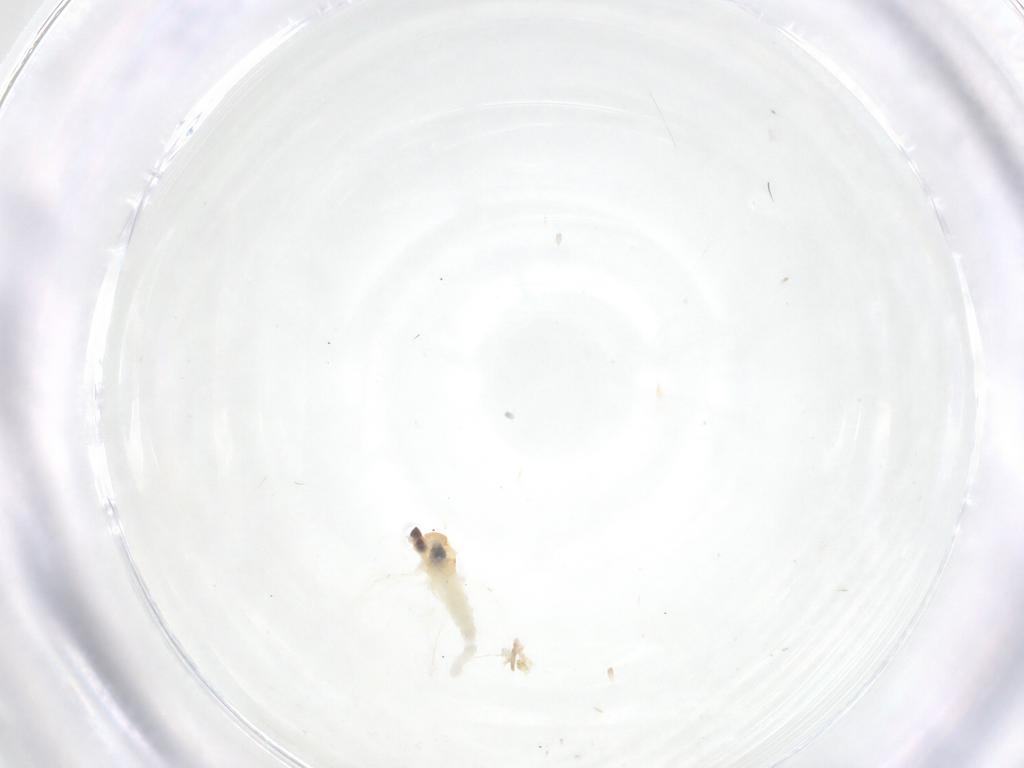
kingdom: Animalia
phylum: Arthropoda
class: Insecta
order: Diptera
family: Cecidomyiidae
